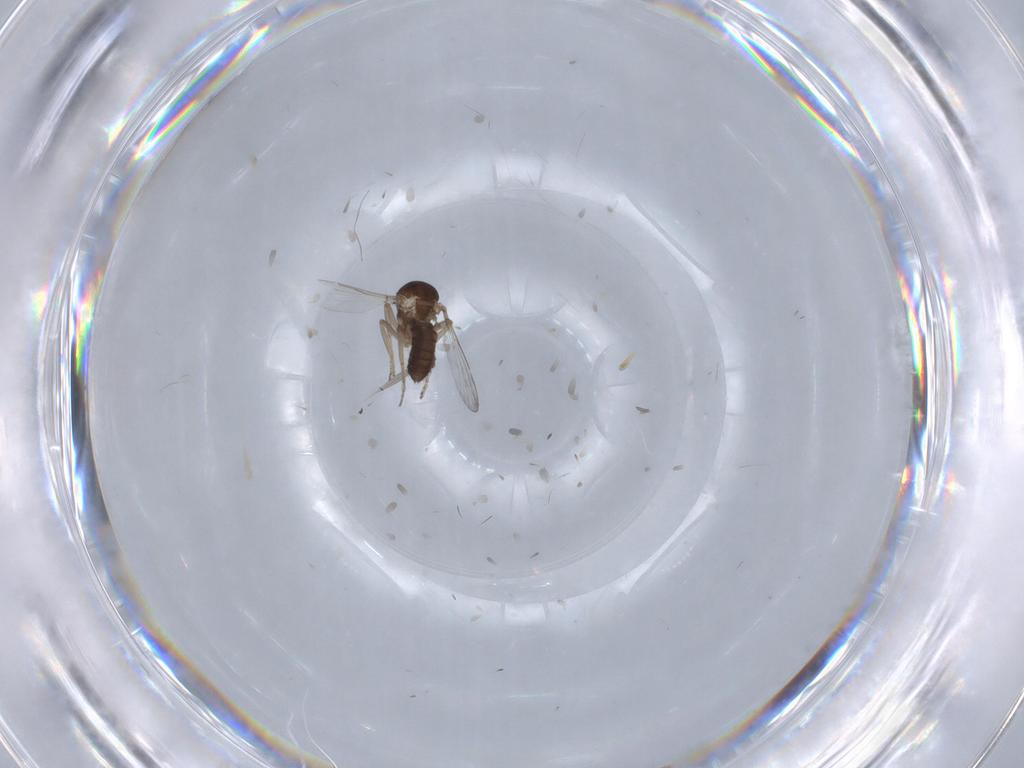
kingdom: Animalia
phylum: Arthropoda
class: Insecta
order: Diptera
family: Ceratopogonidae
